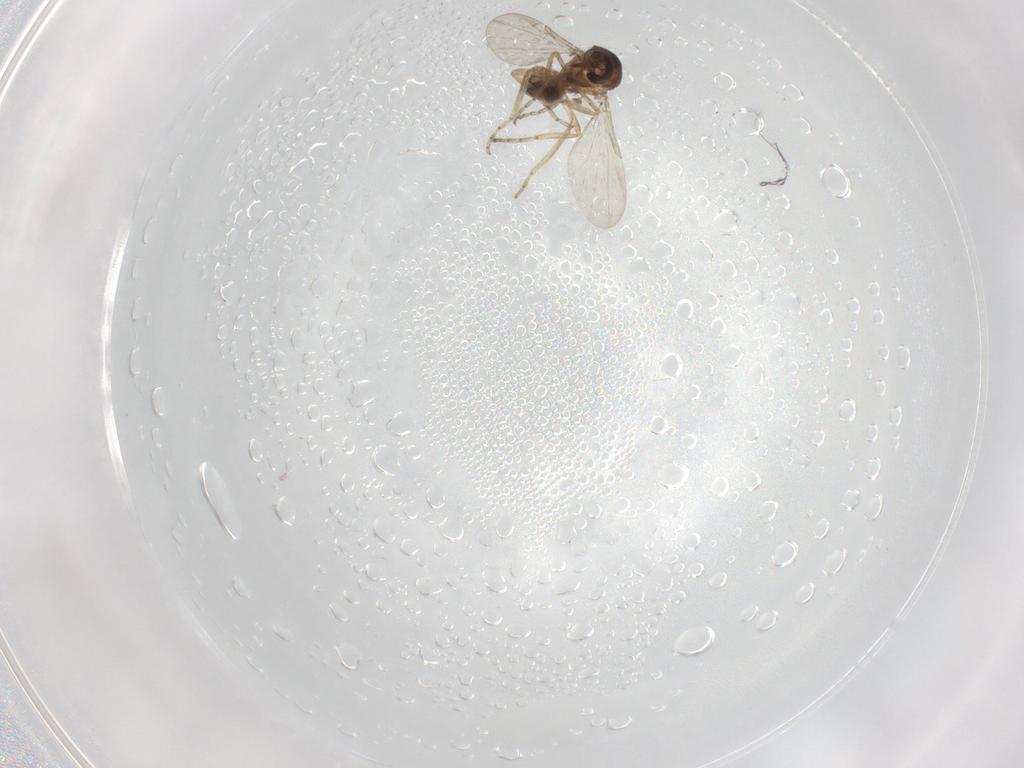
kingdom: Animalia
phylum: Arthropoda
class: Insecta
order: Diptera
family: Ceratopogonidae
